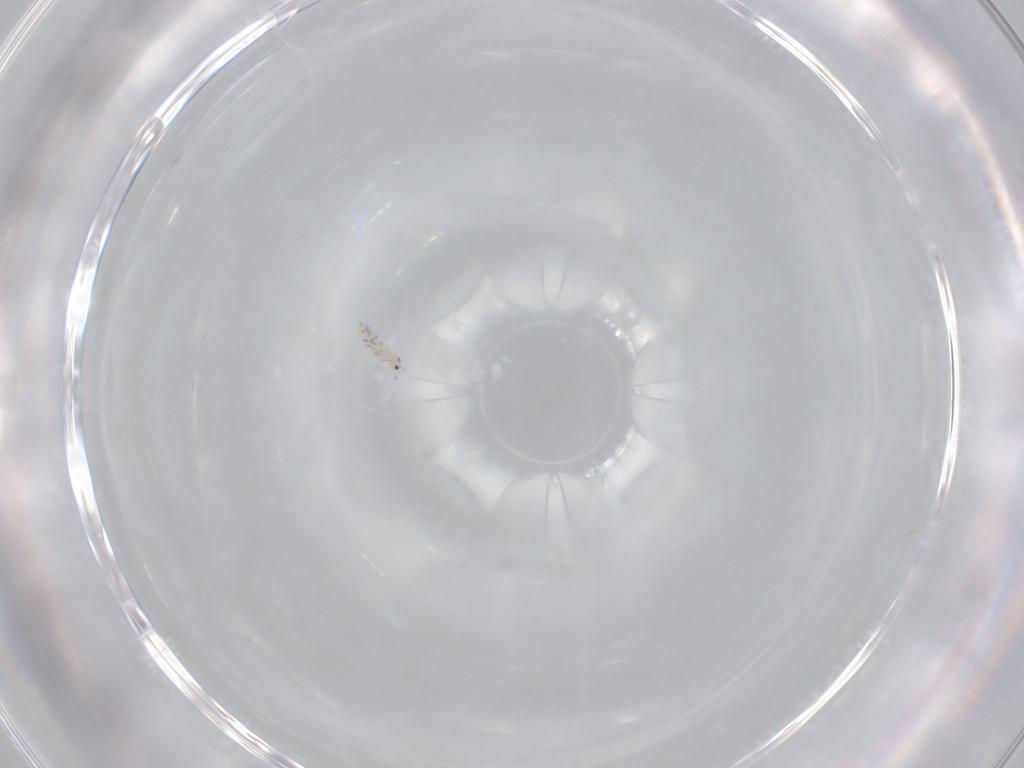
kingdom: Animalia
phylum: Arthropoda
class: Collembola
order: Entomobryomorpha
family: Entomobryidae
